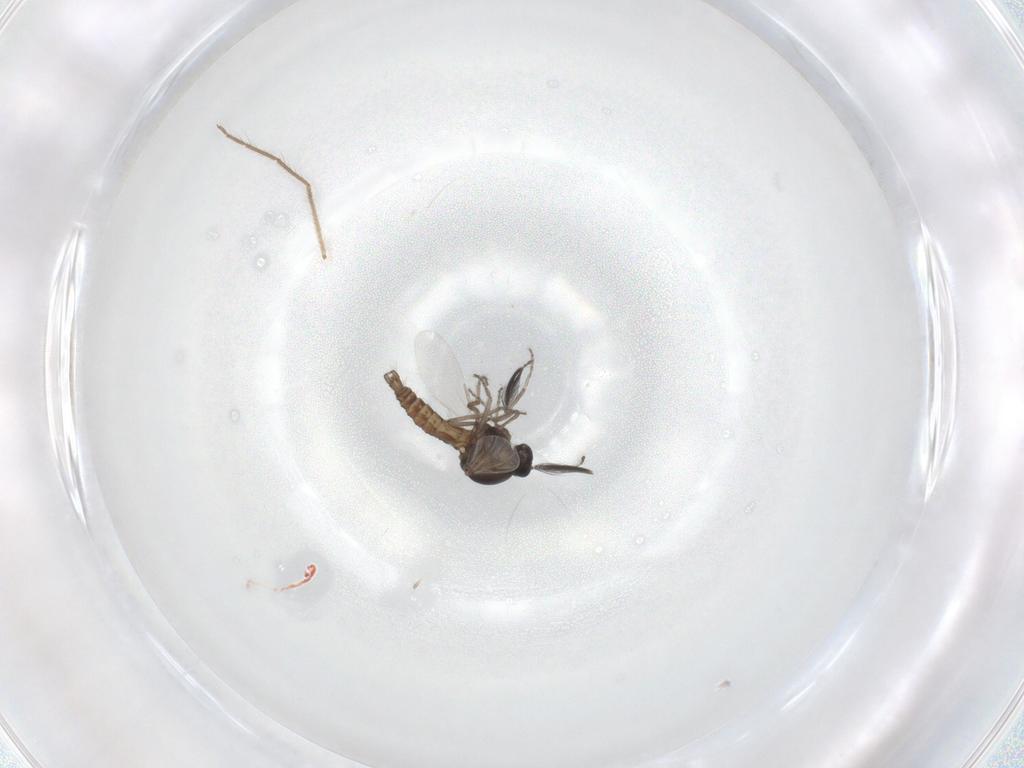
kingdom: Animalia
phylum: Arthropoda
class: Insecta
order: Diptera
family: Ceratopogonidae
